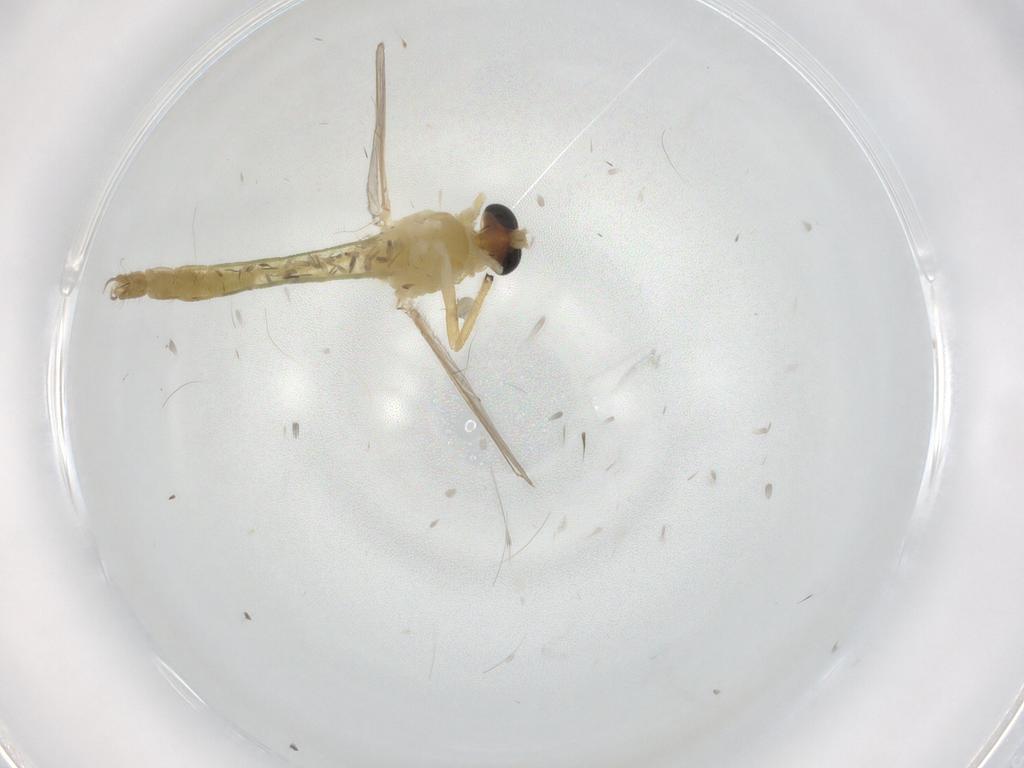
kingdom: Animalia
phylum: Arthropoda
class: Insecta
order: Diptera
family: Chironomidae
